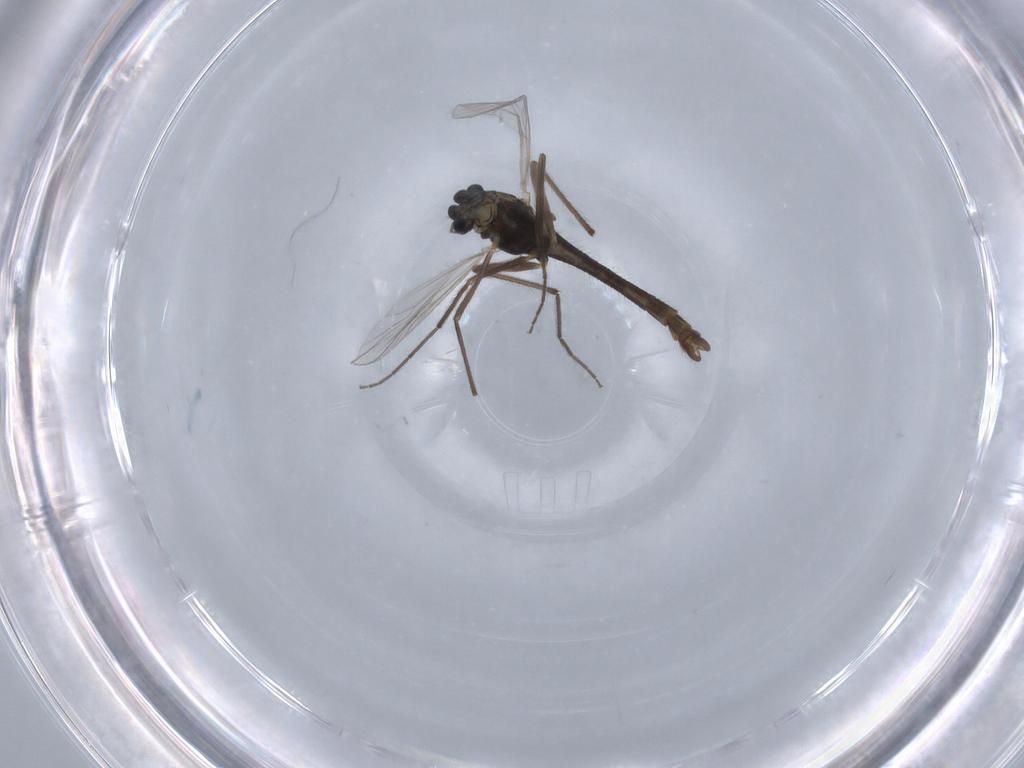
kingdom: Animalia
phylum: Arthropoda
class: Insecta
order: Diptera
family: Chironomidae
